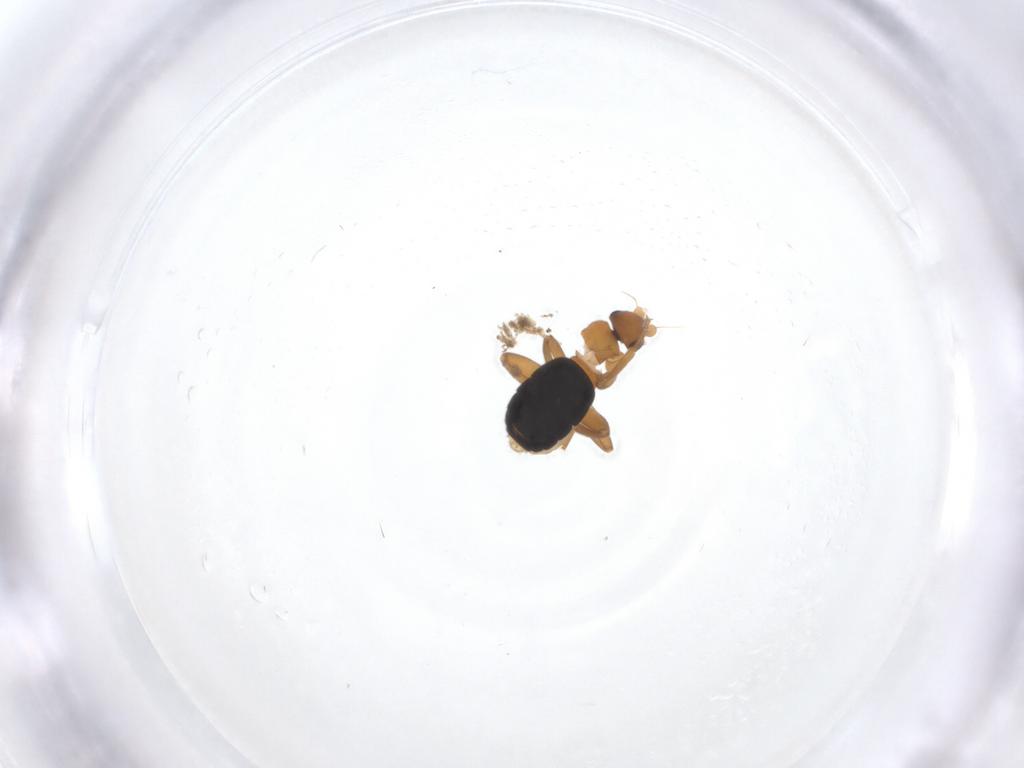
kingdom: Animalia
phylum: Arthropoda
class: Insecta
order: Diptera
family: Phoridae
